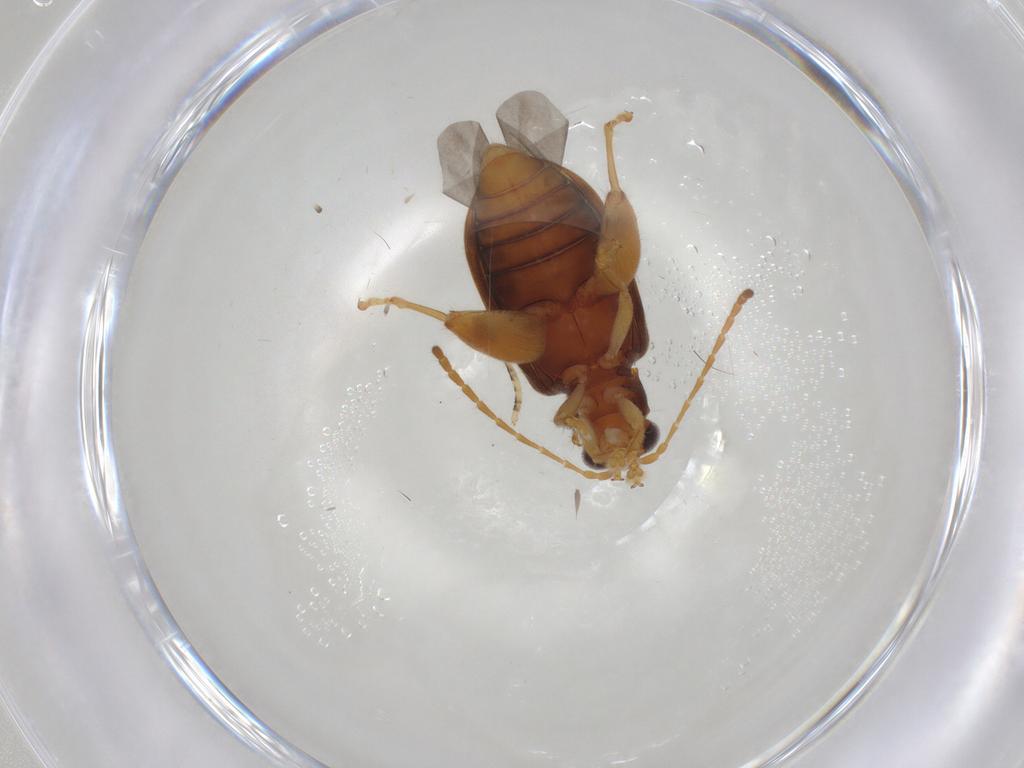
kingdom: Animalia
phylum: Arthropoda
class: Insecta
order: Coleoptera
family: Chrysomelidae
